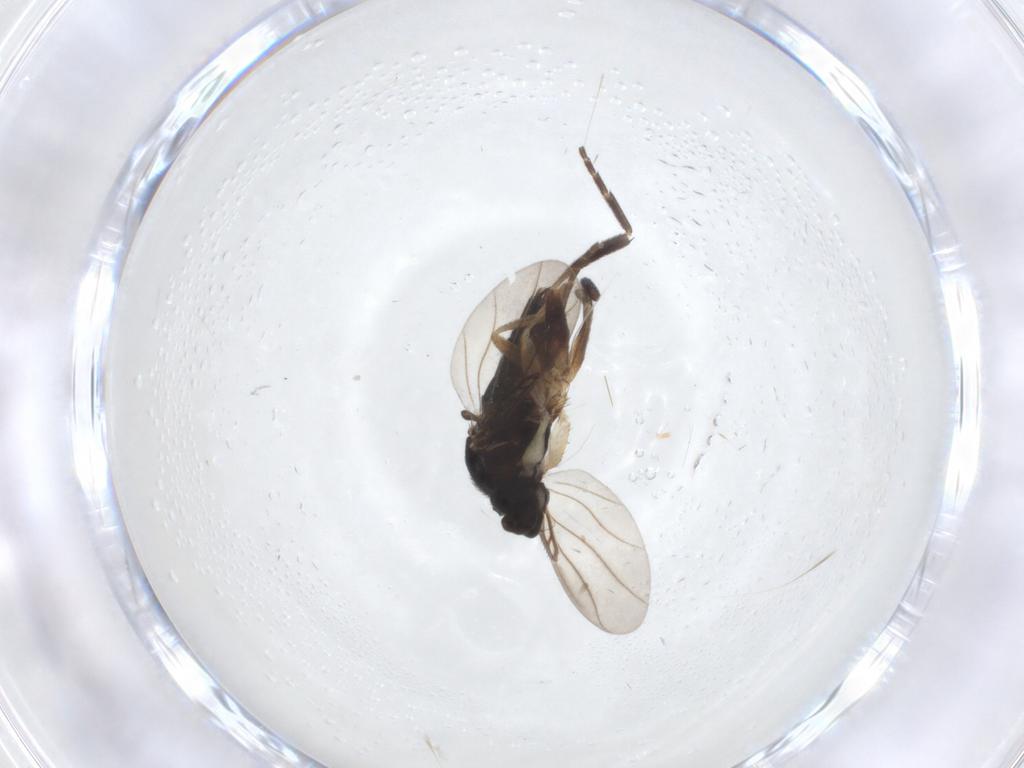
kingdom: Animalia
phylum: Arthropoda
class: Insecta
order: Diptera
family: Phoridae
